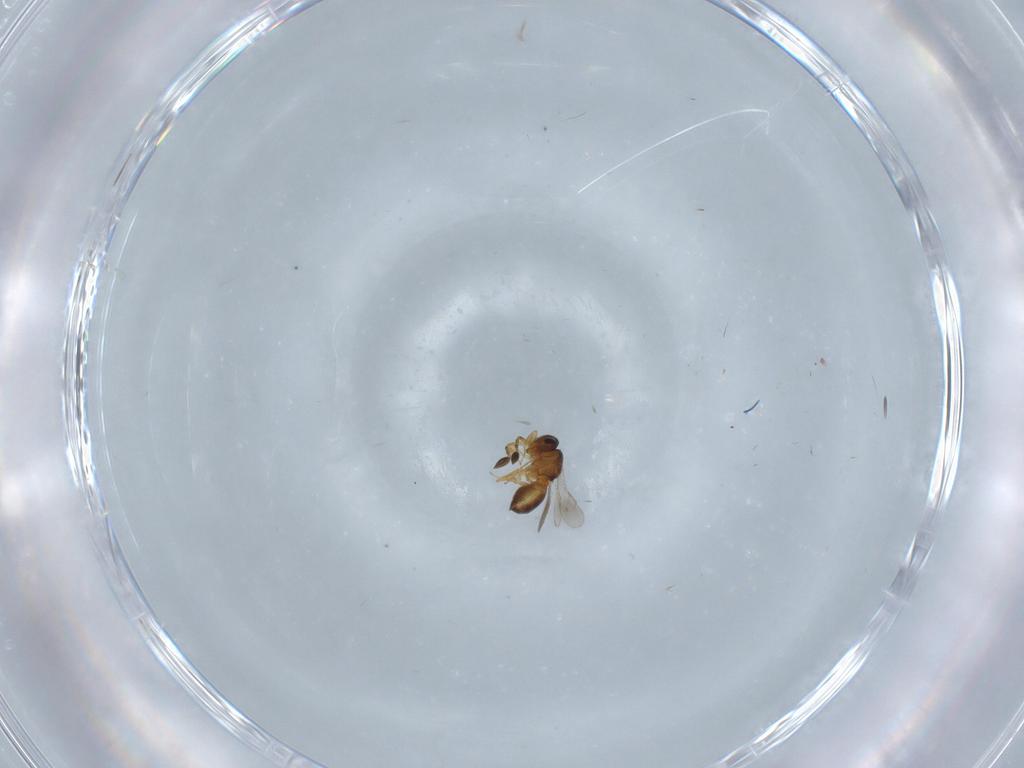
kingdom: Animalia
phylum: Arthropoda
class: Insecta
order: Hymenoptera
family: Scelionidae
